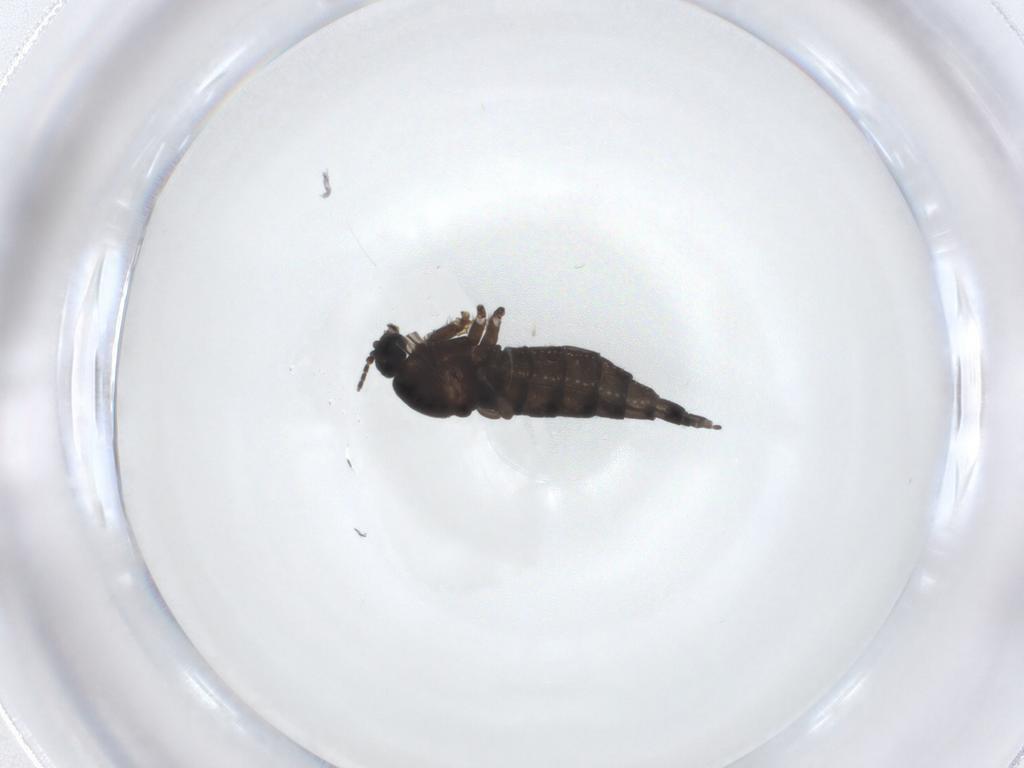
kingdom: Animalia
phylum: Arthropoda
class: Insecta
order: Diptera
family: Sciaridae
